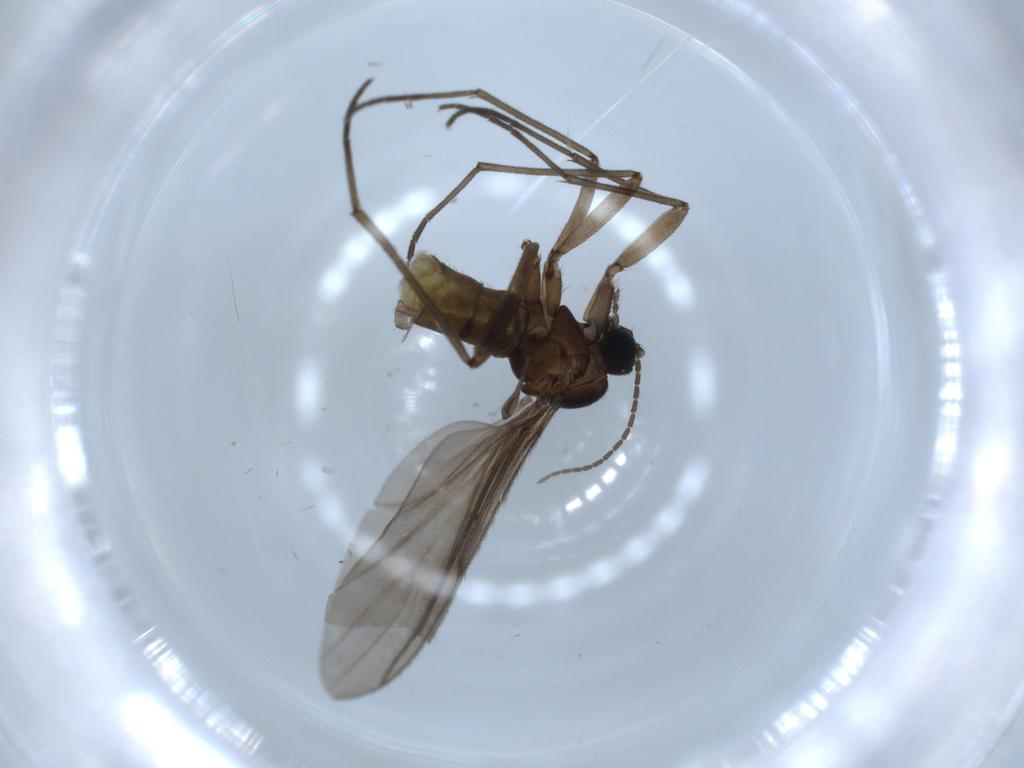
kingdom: Animalia
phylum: Arthropoda
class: Insecta
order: Diptera
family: Sciaridae
